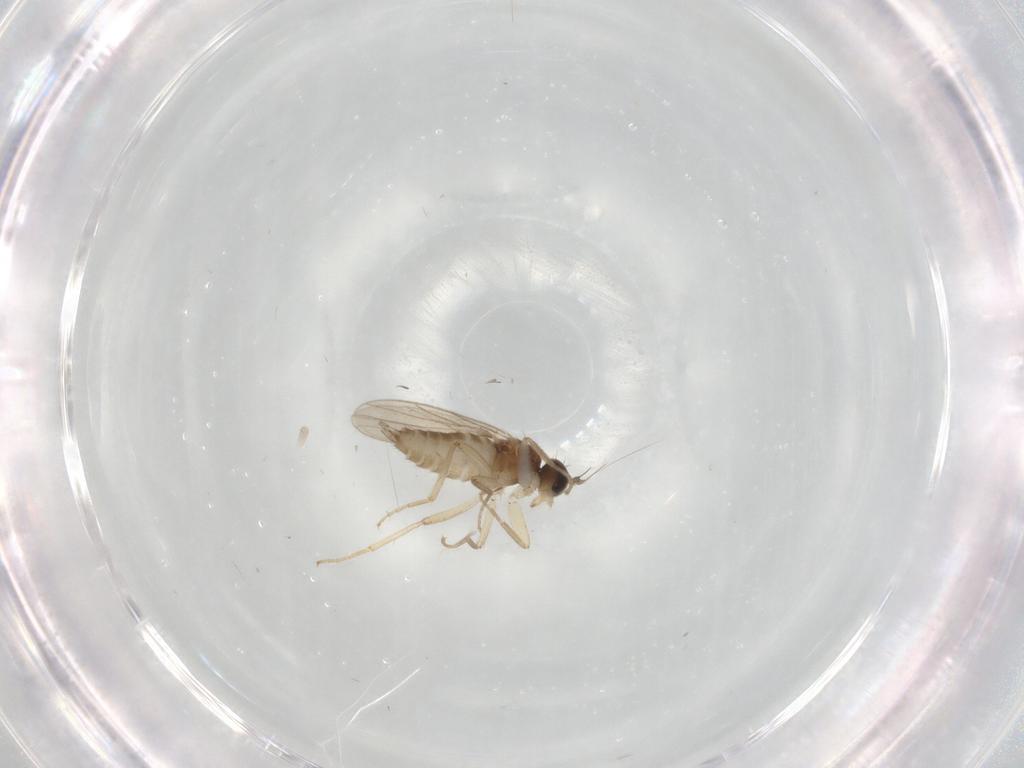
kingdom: Animalia
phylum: Arthropoda
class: Insecta
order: Diptera
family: Hybotidae
